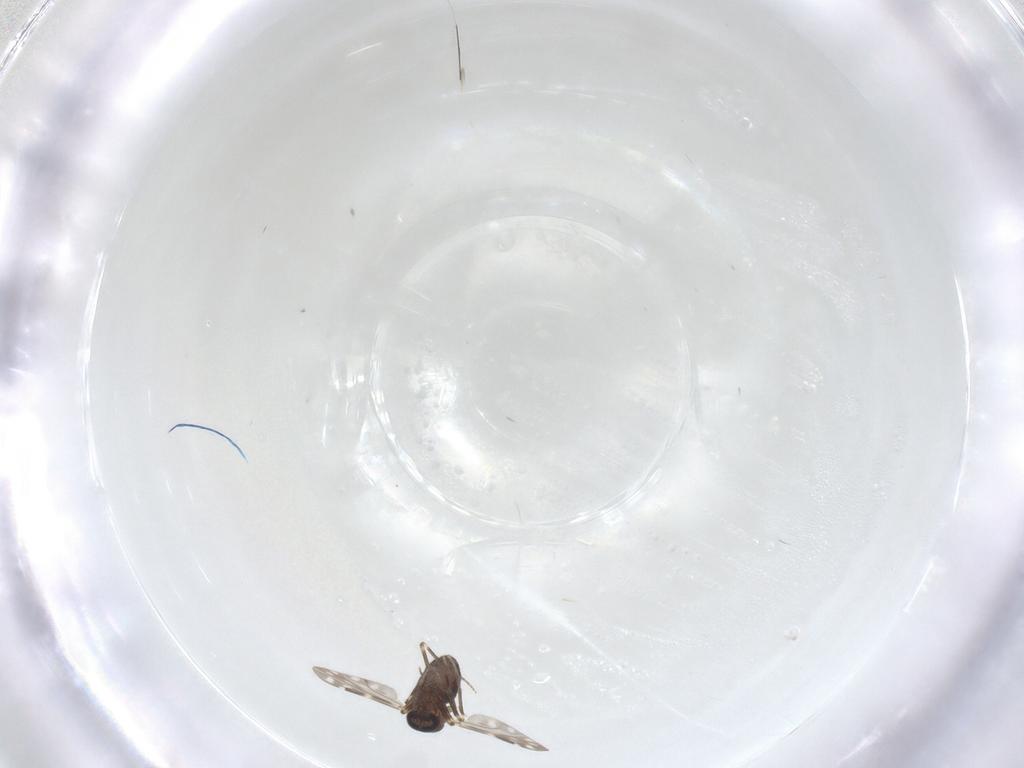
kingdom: Animalia
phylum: Arthropoda
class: Insecta
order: Diptera
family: Ceratopogonidae
